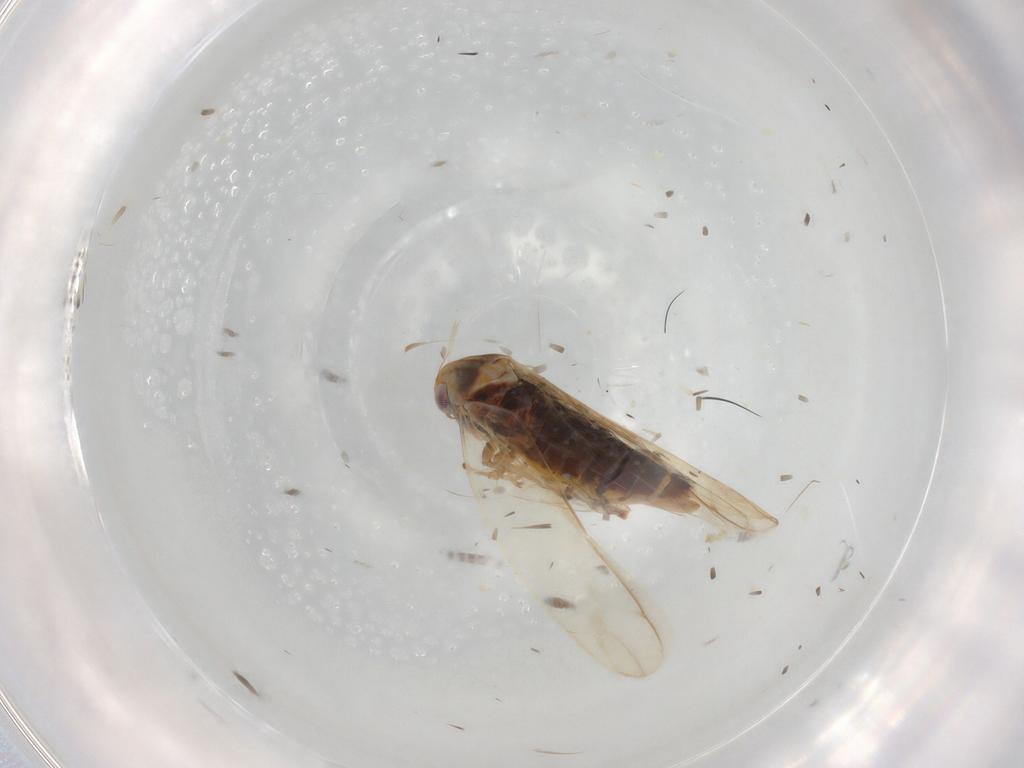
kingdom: Animalia
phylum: Arthropoda
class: Insecta
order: Hemiptera
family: Cicadellidae
